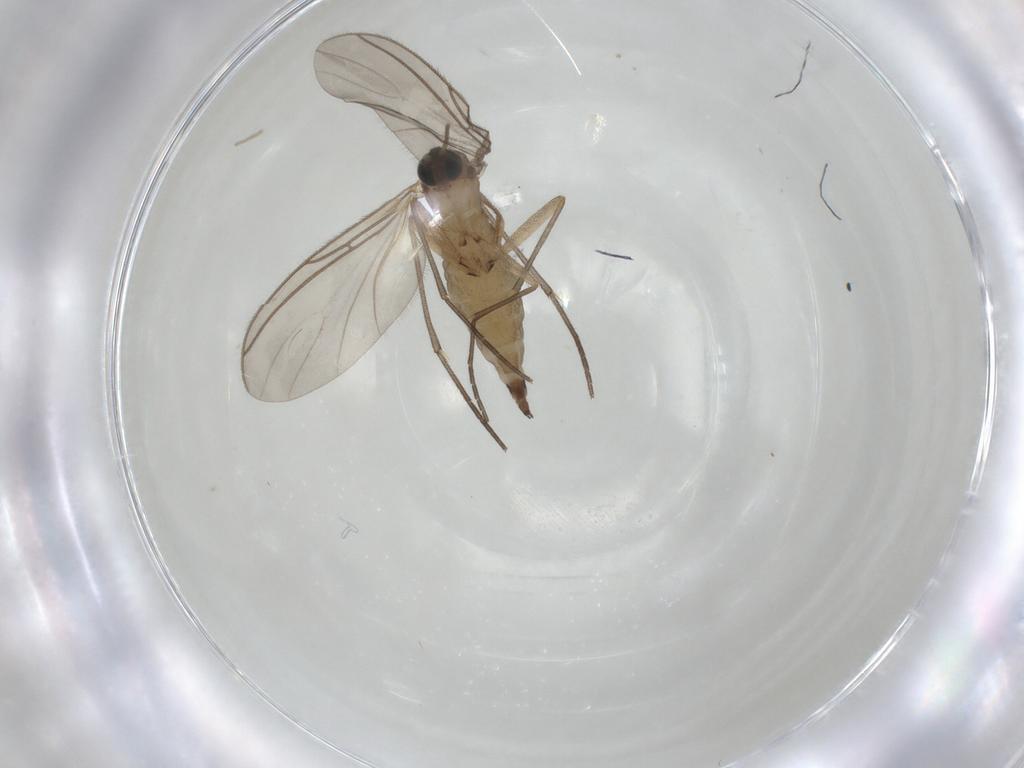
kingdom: Animalia
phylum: Arthropoda
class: Insecta
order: Diptera
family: Sciaridae
